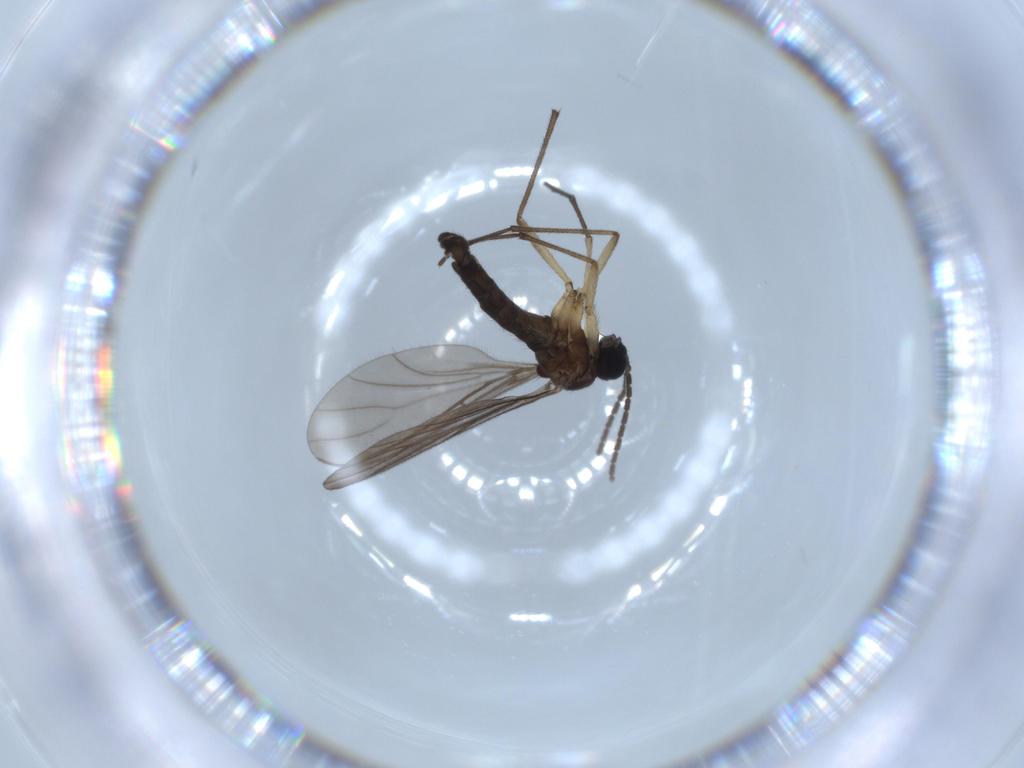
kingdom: Animalia
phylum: Arthropoda
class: Insecta
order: Diptera
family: Sciaridae
